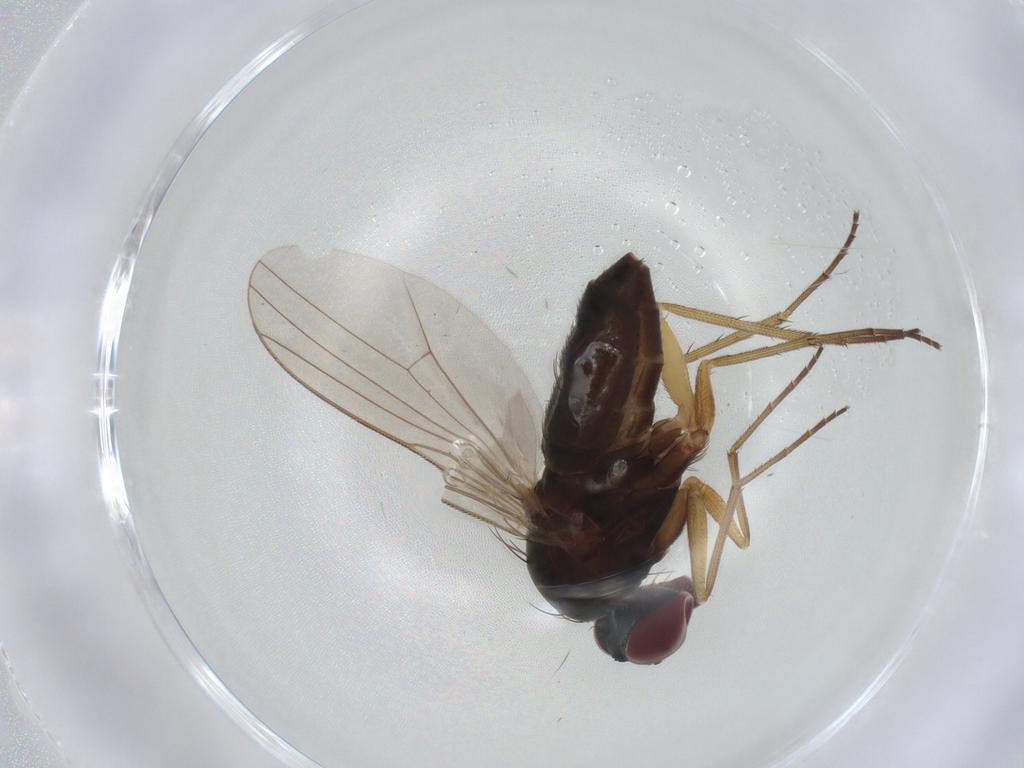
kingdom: Animalia
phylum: Arthropoda
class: Insecta
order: Diptera
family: Dolichopodidae
